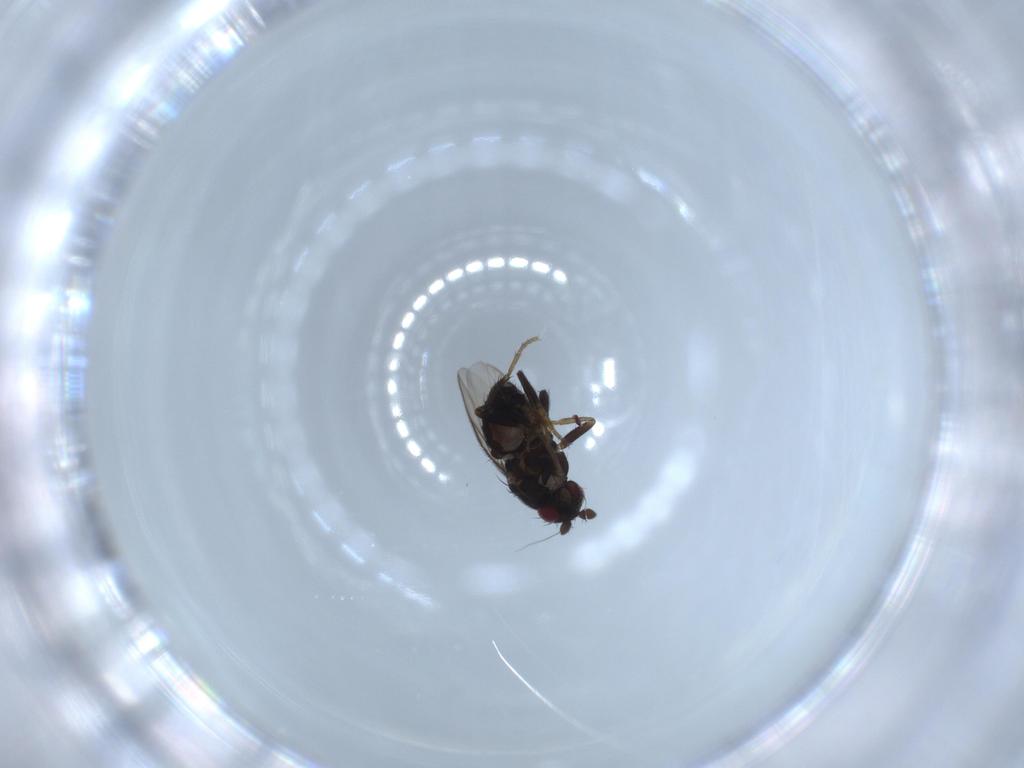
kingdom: Animalia
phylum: Arthropoda
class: Insecta
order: Diptera
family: Sphaeroceridae
